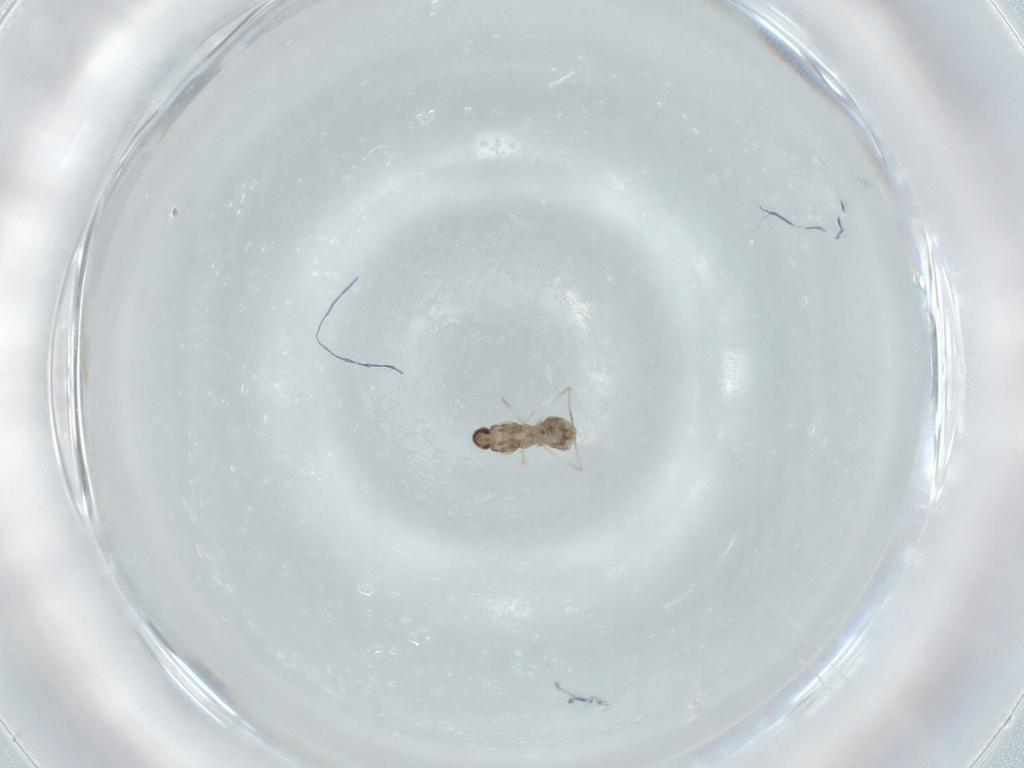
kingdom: Animalia
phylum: Arthropoda
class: Insecta
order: Diptera
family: Cecidomyiidae
